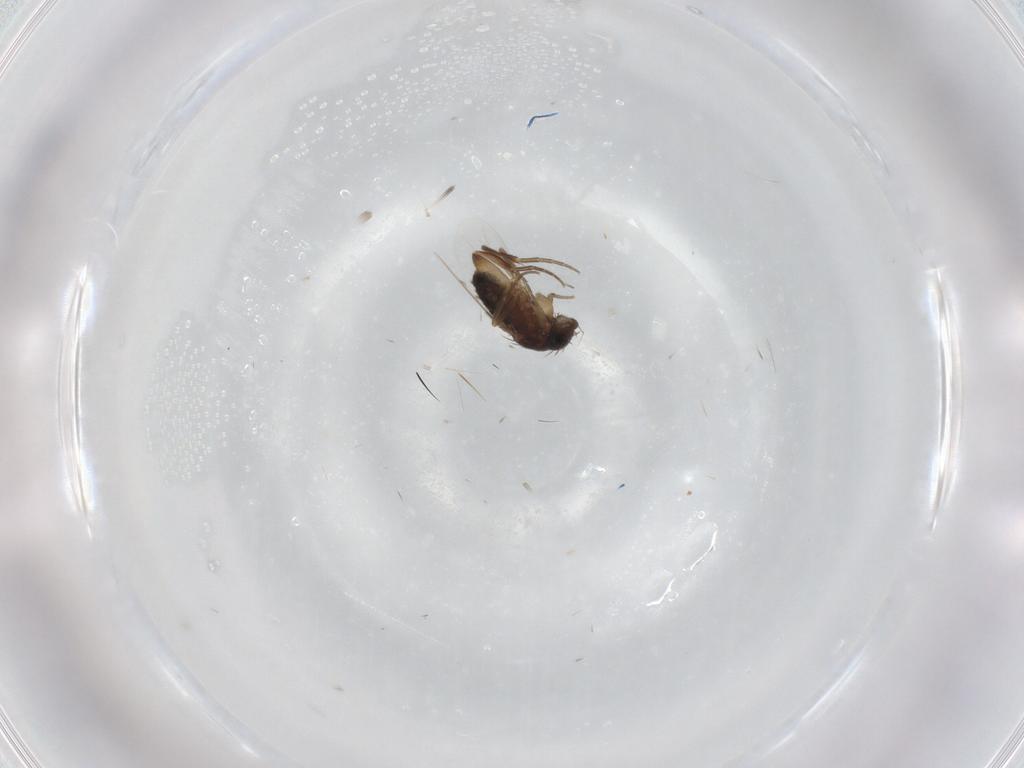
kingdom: Animalia
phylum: Arthropoda
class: Insecta
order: Diptera
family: Phoridae
